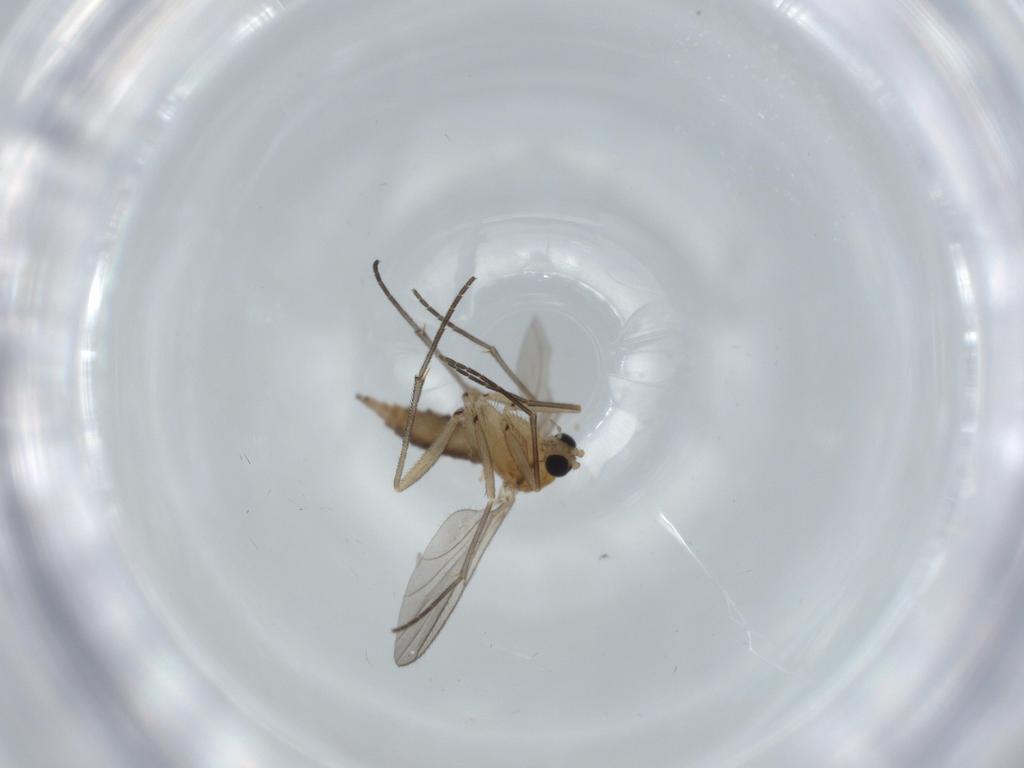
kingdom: Animalia
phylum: Arthropoda
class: Insecta
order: Diptera
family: Sciaridae
